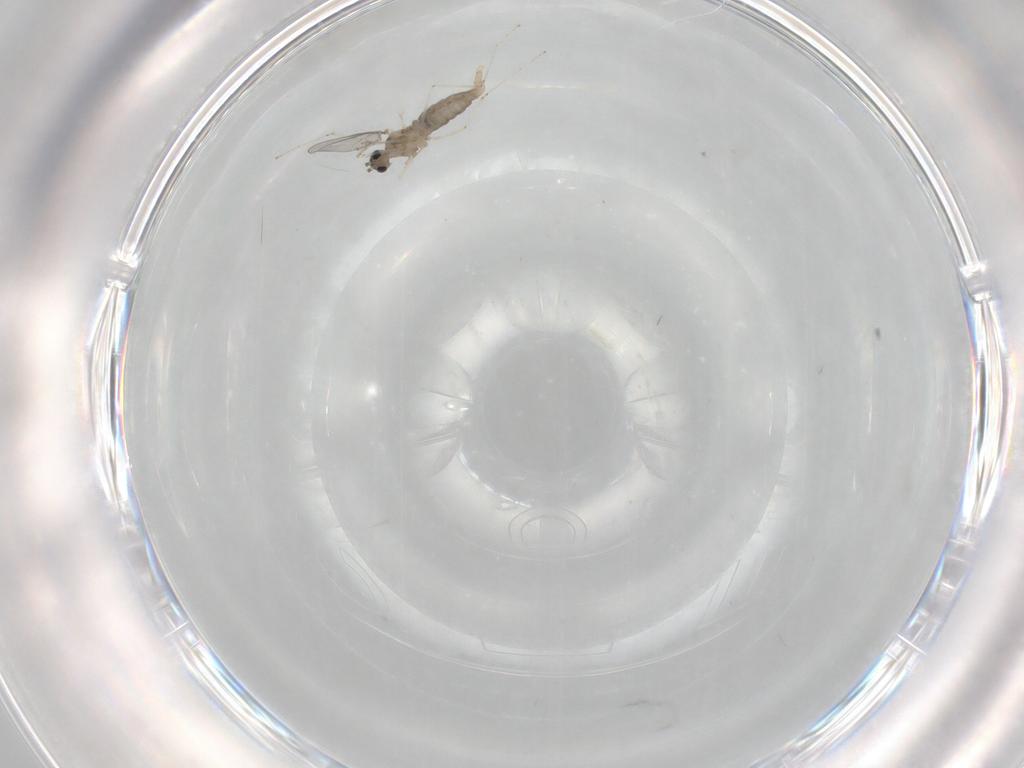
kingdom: Animalia
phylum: Arthropoda
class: Insecta
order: Diptera
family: Cecidomyiidae
